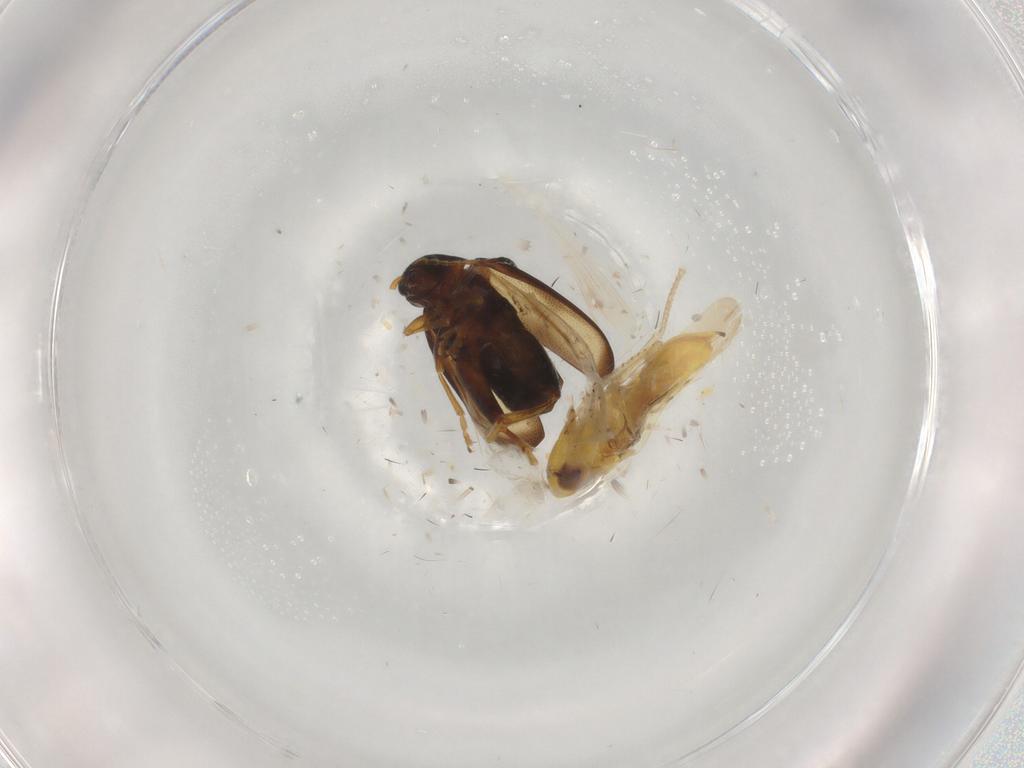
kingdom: Animalia
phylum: Arthropoda
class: Insecta
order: Coleoptera
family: Chrysomelidae
